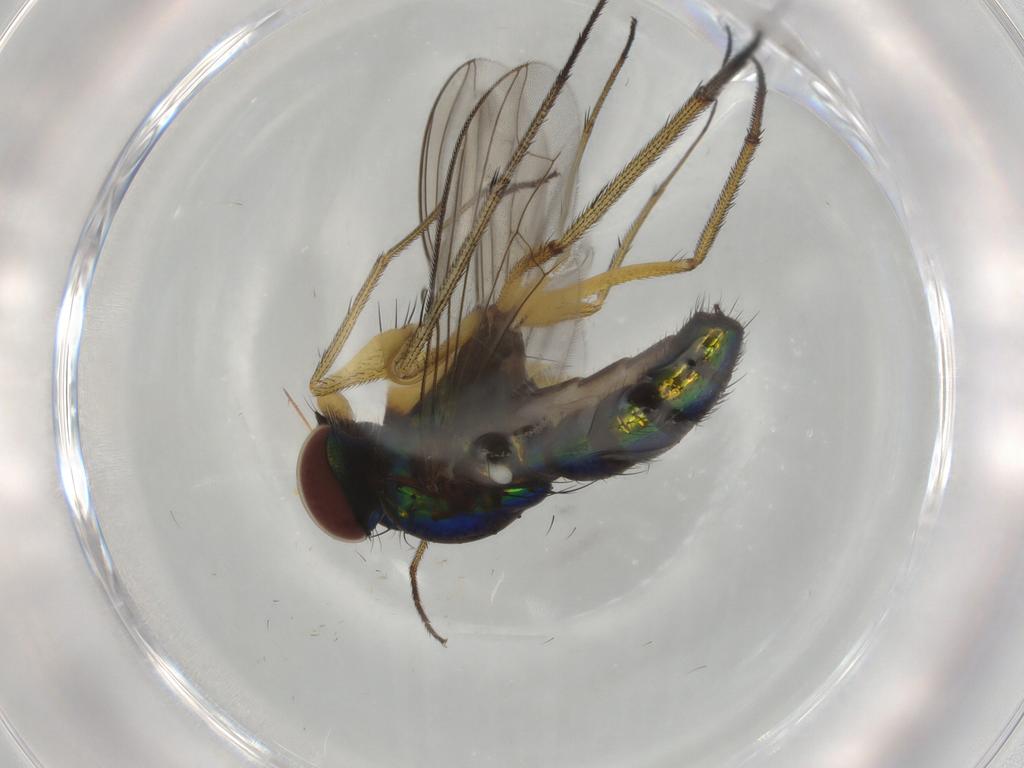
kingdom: Animalia
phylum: Arthropoda
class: Insecta
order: Diptera
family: Dolichopodidae
